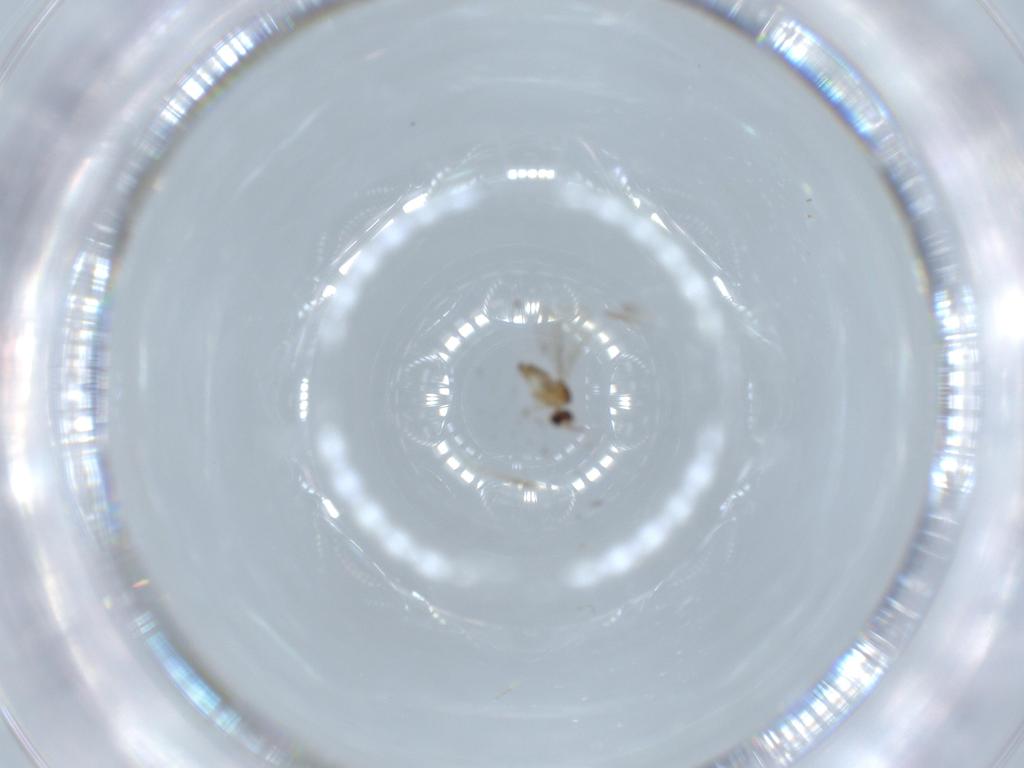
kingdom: Animalia
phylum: Arthropoda
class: Insecta
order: Diptera
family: Cecidomyiidae
